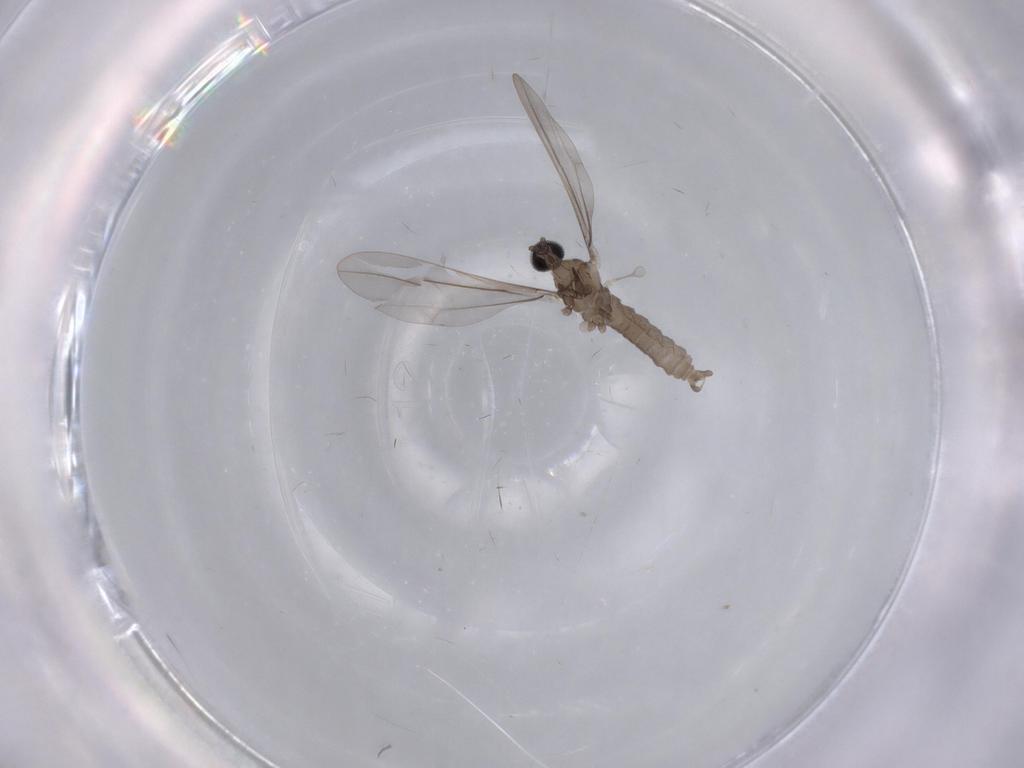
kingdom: Animalia
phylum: Arthropoda
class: Insecta
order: Diptera
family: Cecidomyiidae
